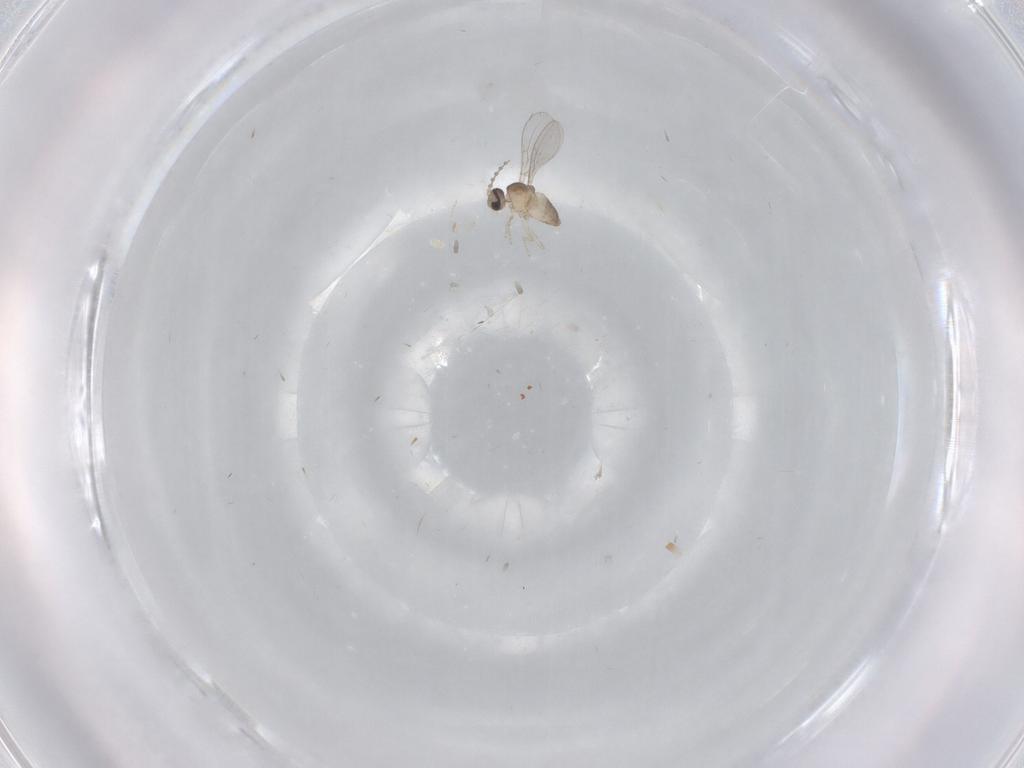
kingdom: Animalia
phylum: Arthropoda
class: Insecta
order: Diptera
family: Cecidomyiidae
